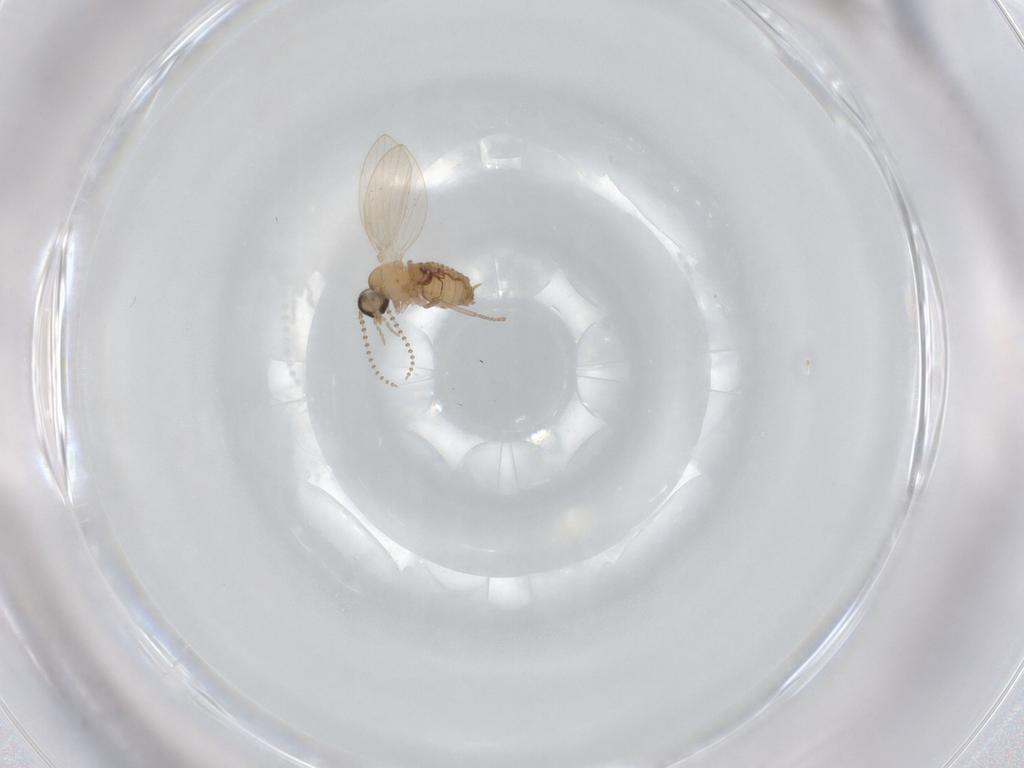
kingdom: Animalia
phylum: Arthropoda
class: Insecta
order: Diptera
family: Psychodidae
